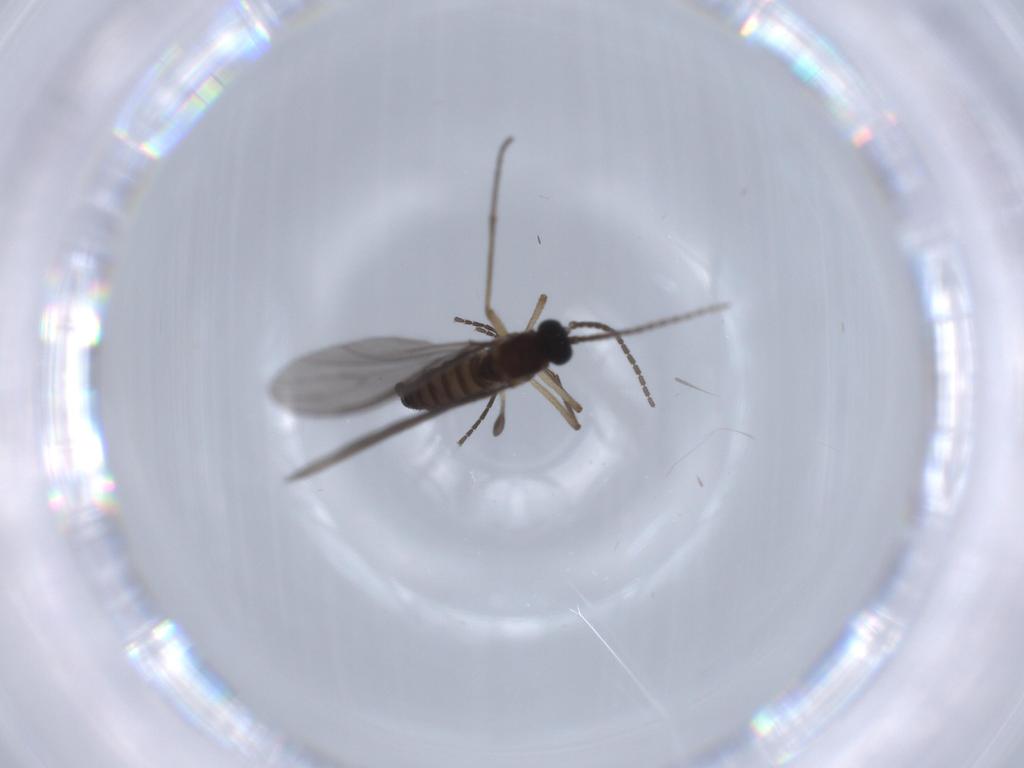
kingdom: Animalia
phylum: Arthropoda
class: Insecta
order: Diptera
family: Sciaridae
